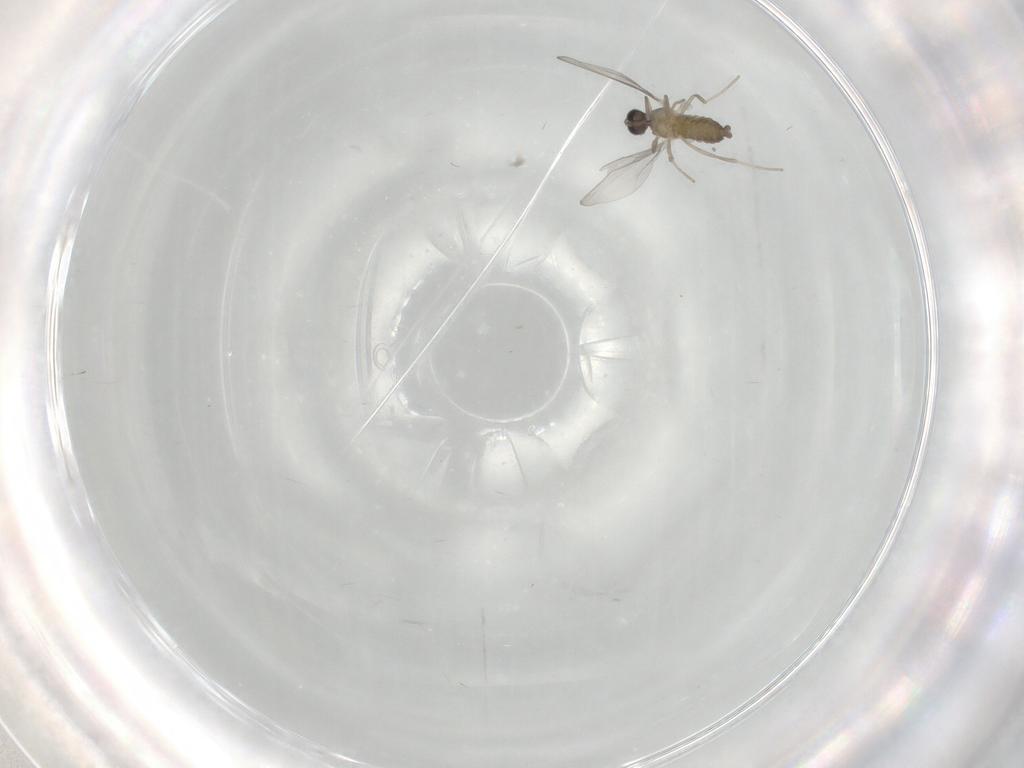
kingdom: Animalia
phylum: Arthropoda
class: Insecta
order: Diptera
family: Cecidomyiidae
